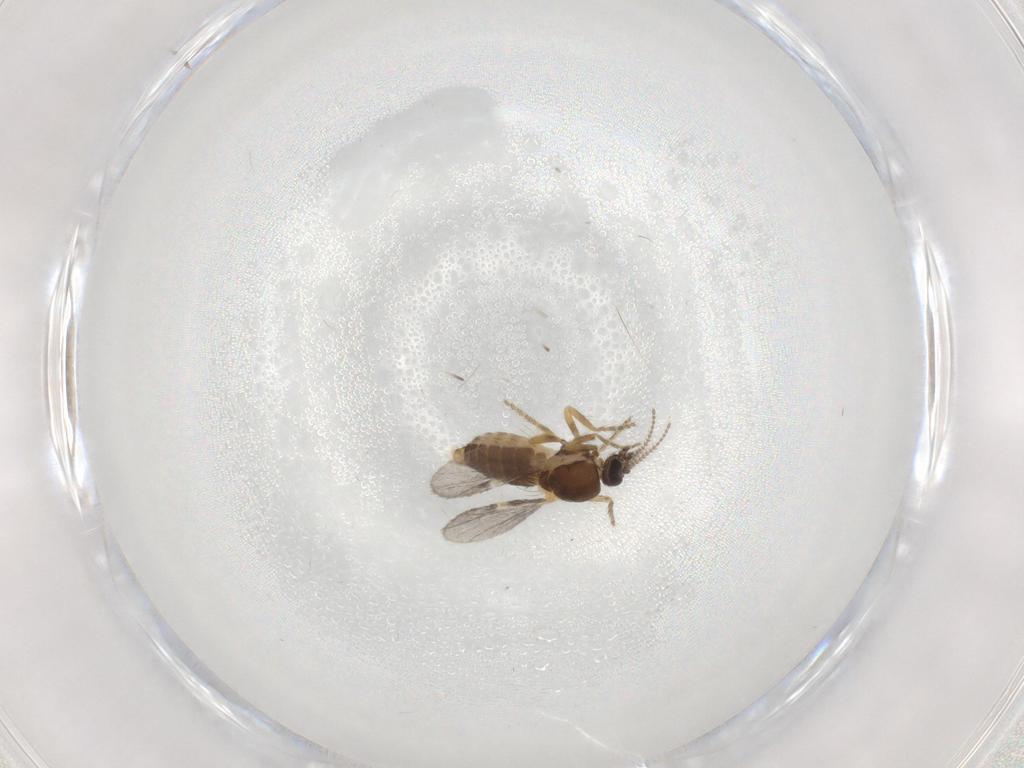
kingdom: Animalia
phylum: Arthropoda
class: Insecta
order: Diptera
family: Ceratopogonidae
